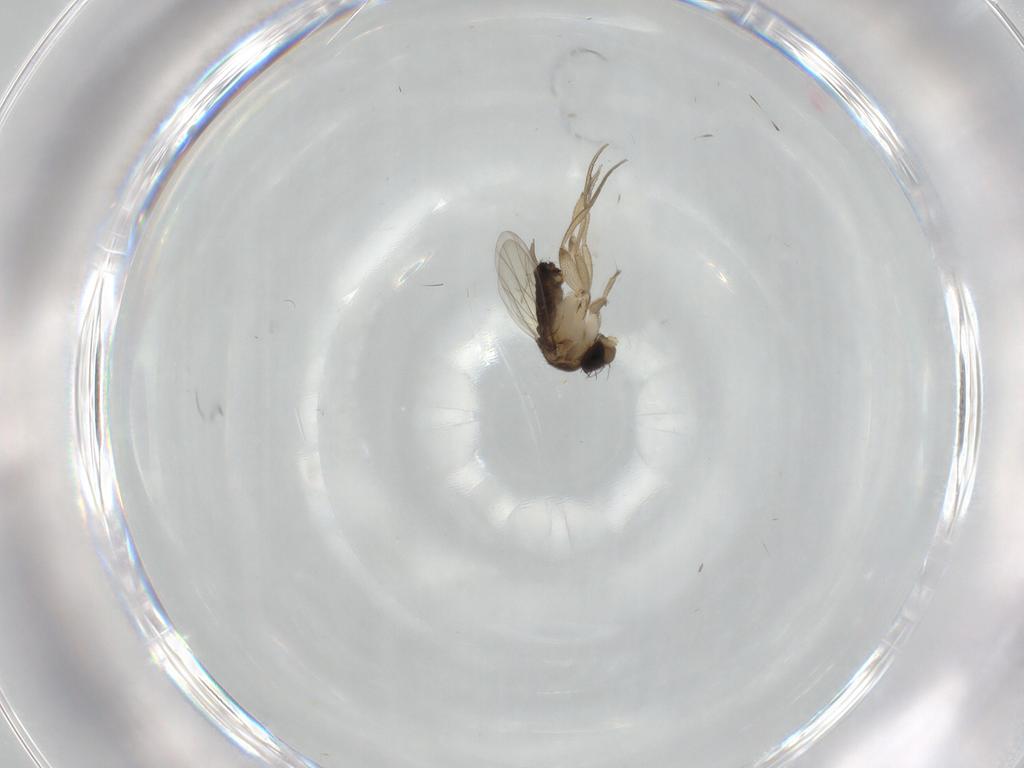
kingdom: Animalia
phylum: Arthropoda
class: Insecta
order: Diptera
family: Phoridae
